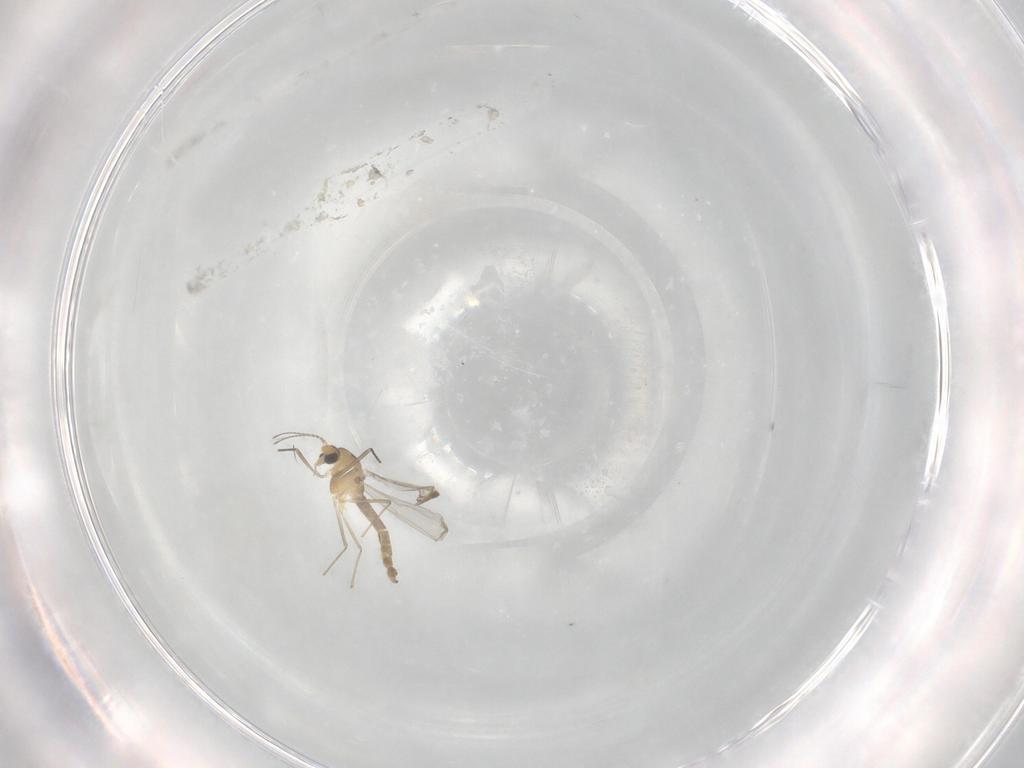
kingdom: Animalia
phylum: Arthropoda
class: Insecta
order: Diptera
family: Chironomidae
